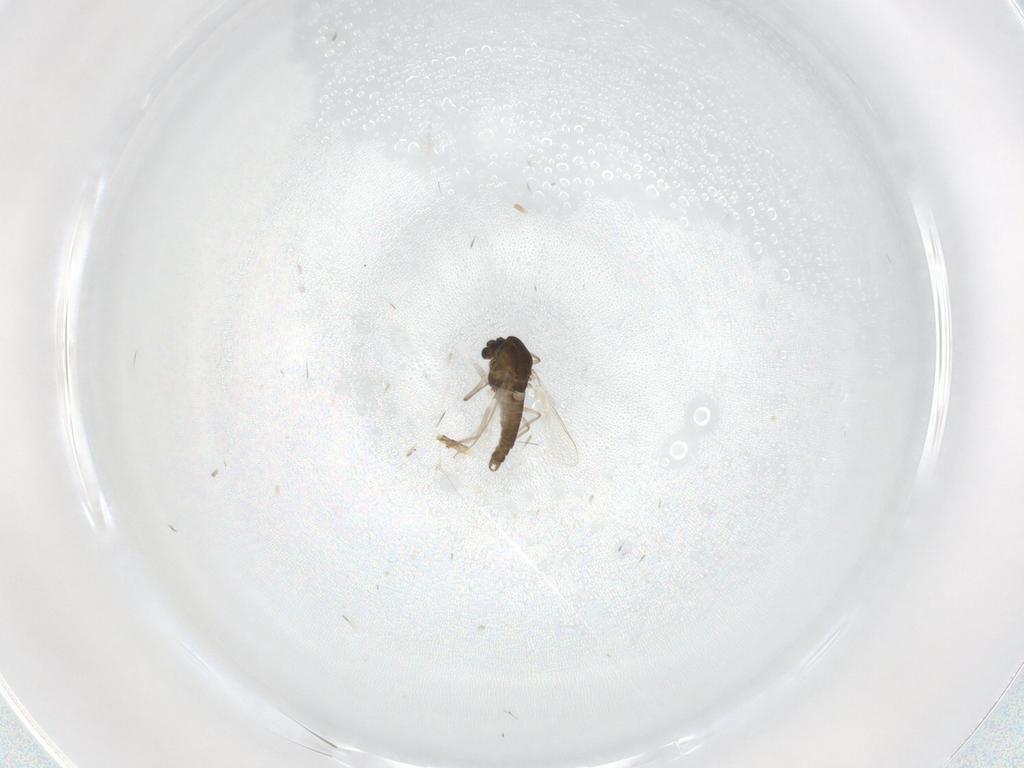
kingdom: Animalia
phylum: Arthropoda
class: Insecta
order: Diptera
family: Chironomidae
